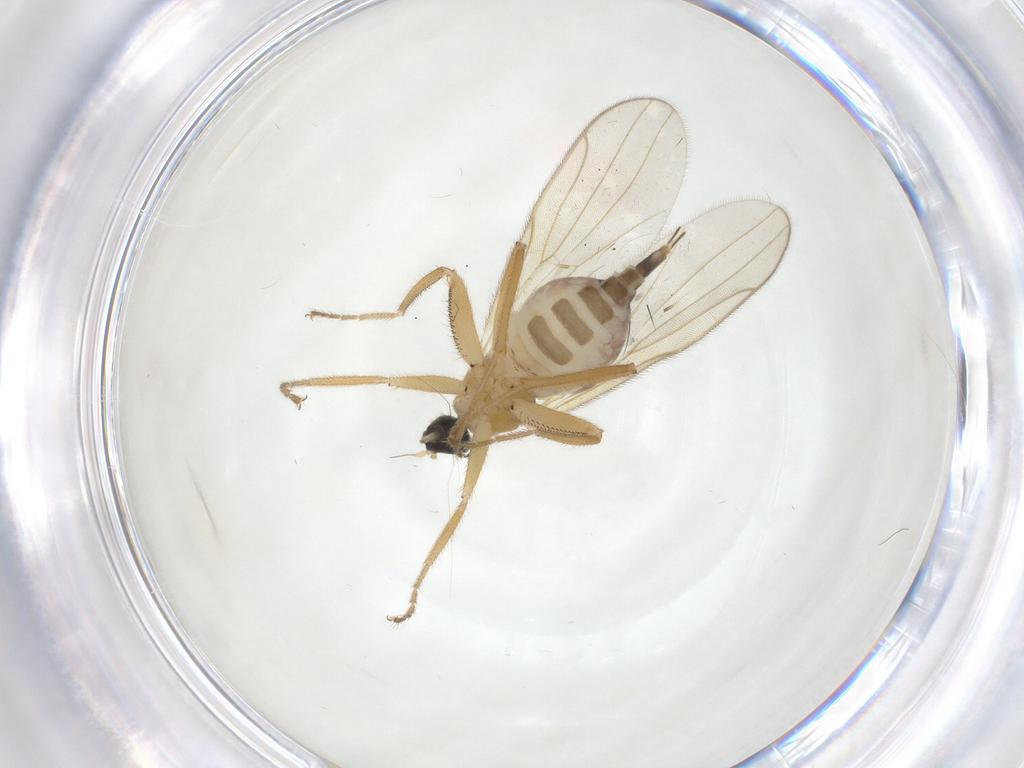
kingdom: Animalia
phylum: Arthropoda
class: Insecta
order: Diptera
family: Hybotidae
